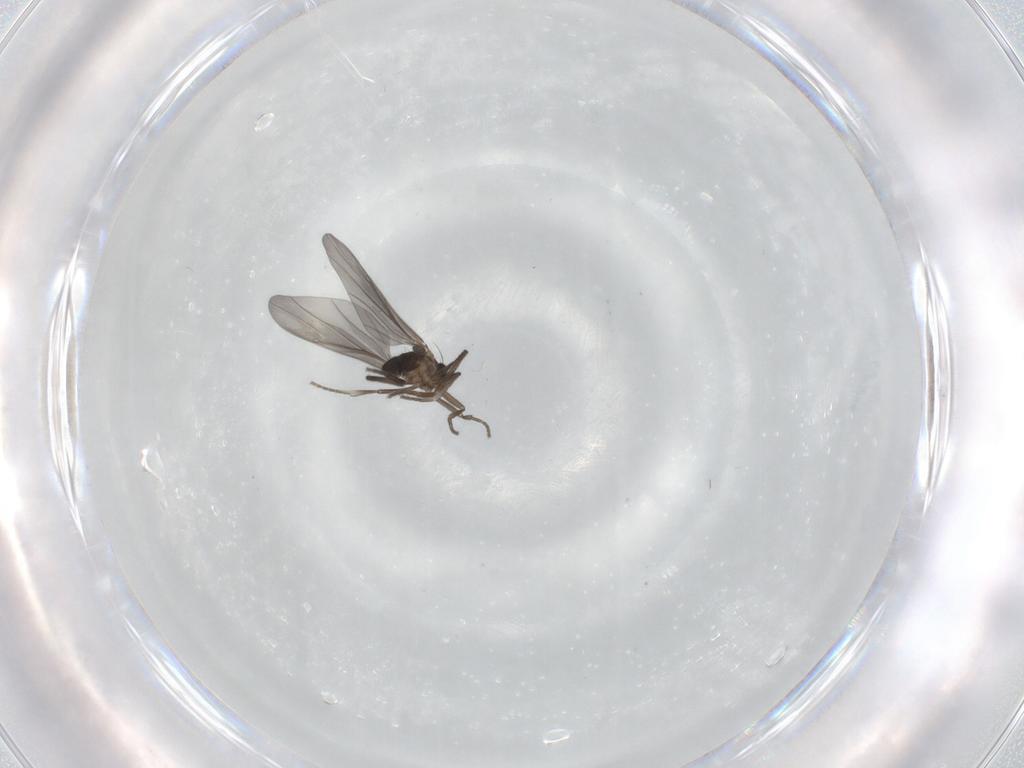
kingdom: Animalia
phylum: Arthropoda
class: Insecta
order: Diptera
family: Phoridae
